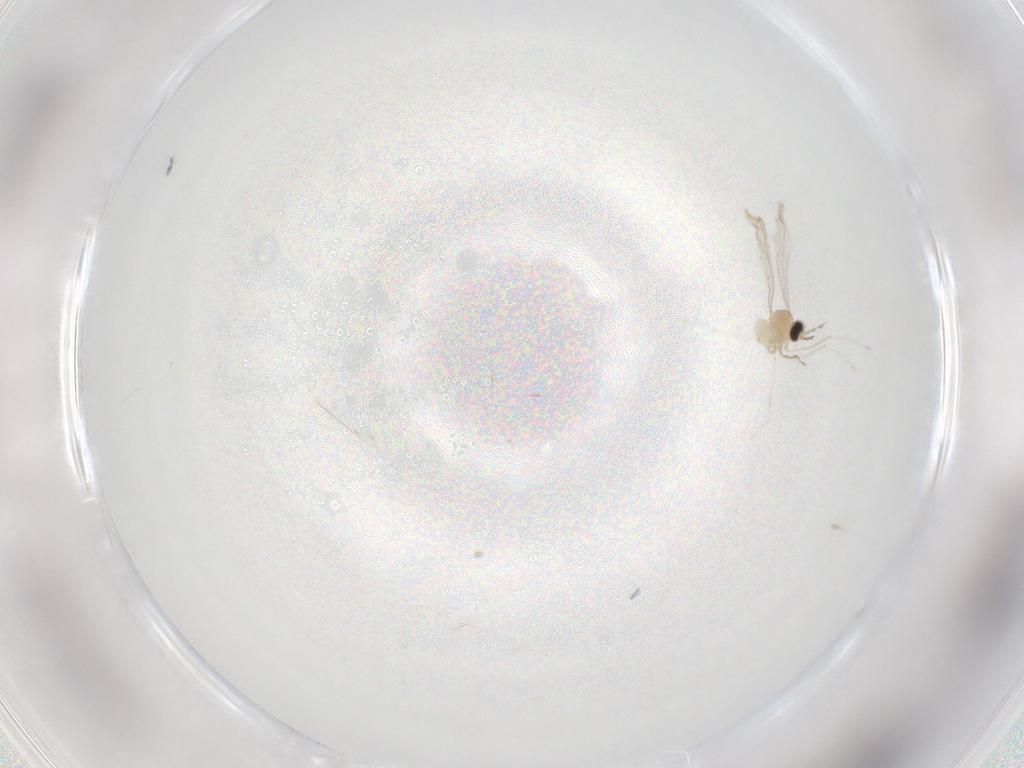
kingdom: Animalia
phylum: Arthropoda
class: Insecta
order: Diptera
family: Cecidomyiidae
